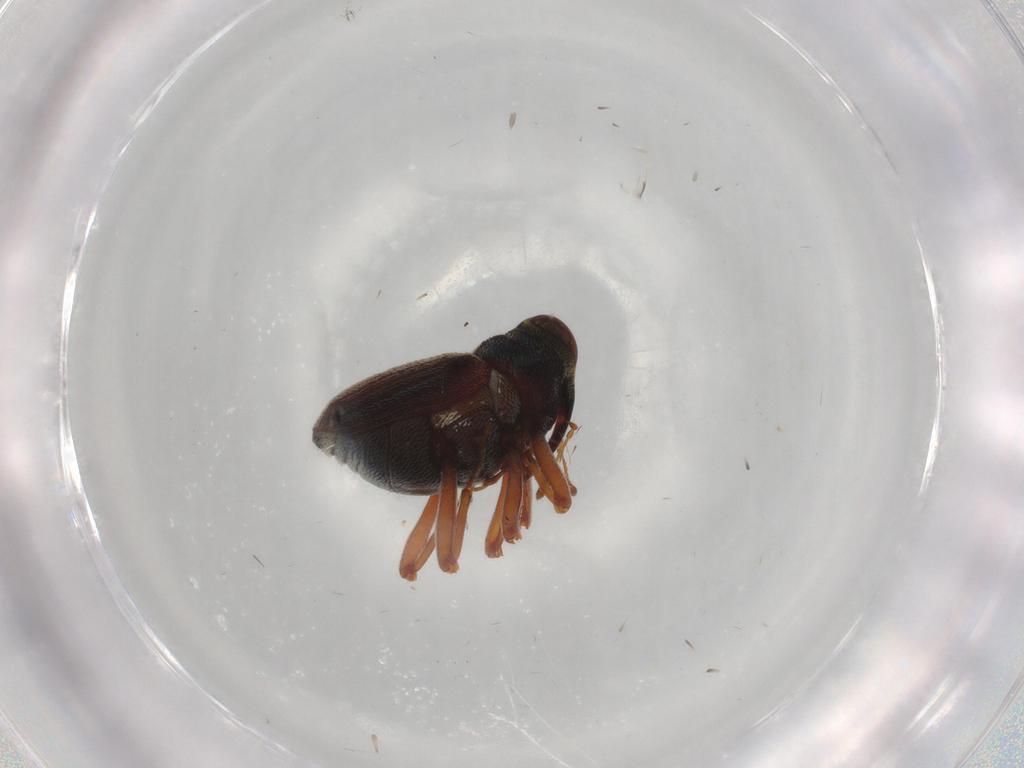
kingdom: Animalia
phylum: Arthropoda
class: Insecta
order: Coleoptera
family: Curculionidae
